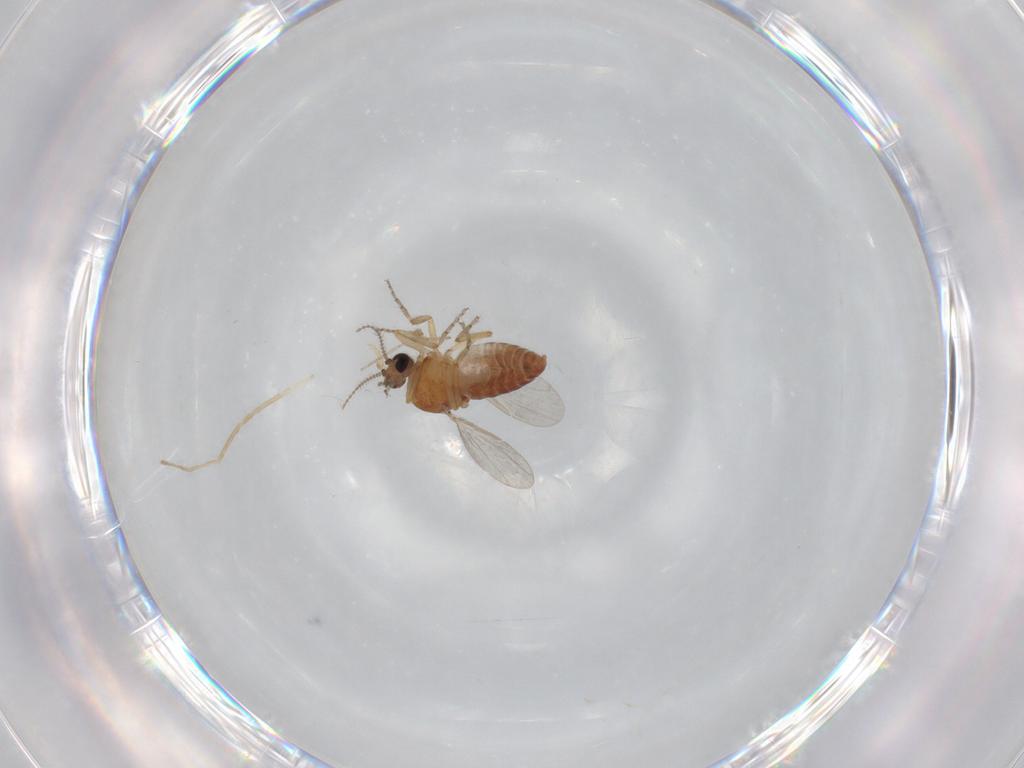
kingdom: Animalia
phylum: Arthropoda
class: Insecta
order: Diptera
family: Ceratopogonidae
